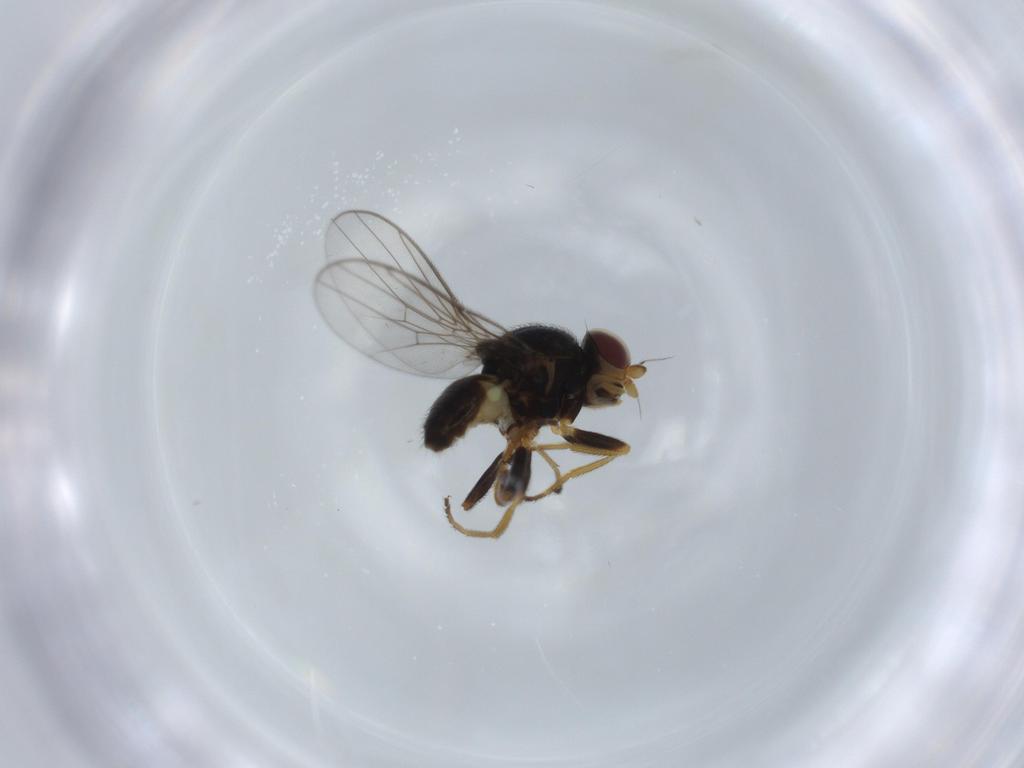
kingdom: Animalia
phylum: Arthropoda
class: Insecta
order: Diptera
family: Chloropidae
